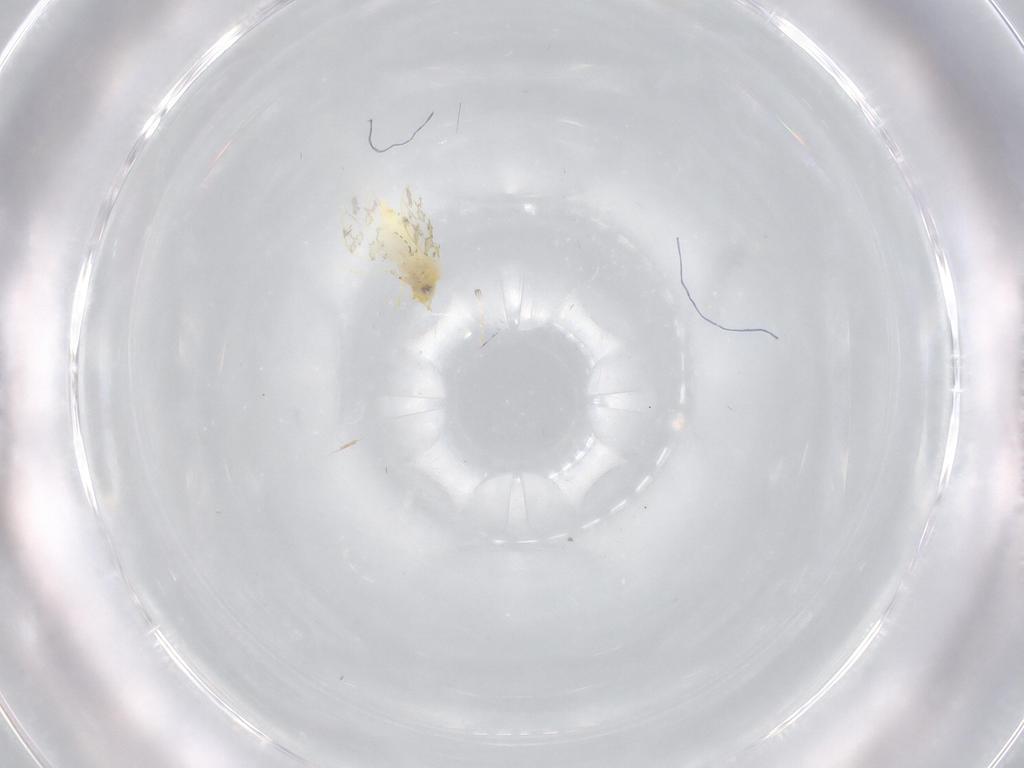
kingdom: Animalia
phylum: Arthropoda
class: Insecta
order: Hemiptera
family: Aleyrodidae
